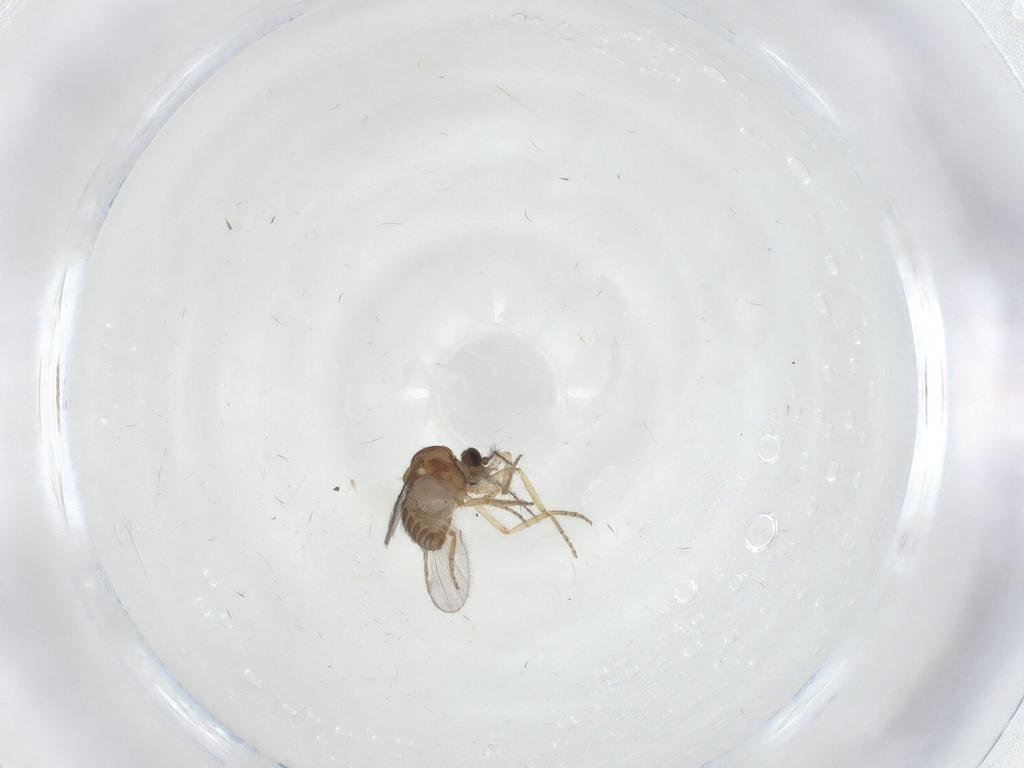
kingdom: Animalia
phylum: Arthropoda
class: Insecta
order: Diptera
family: Ceratopogonidae
